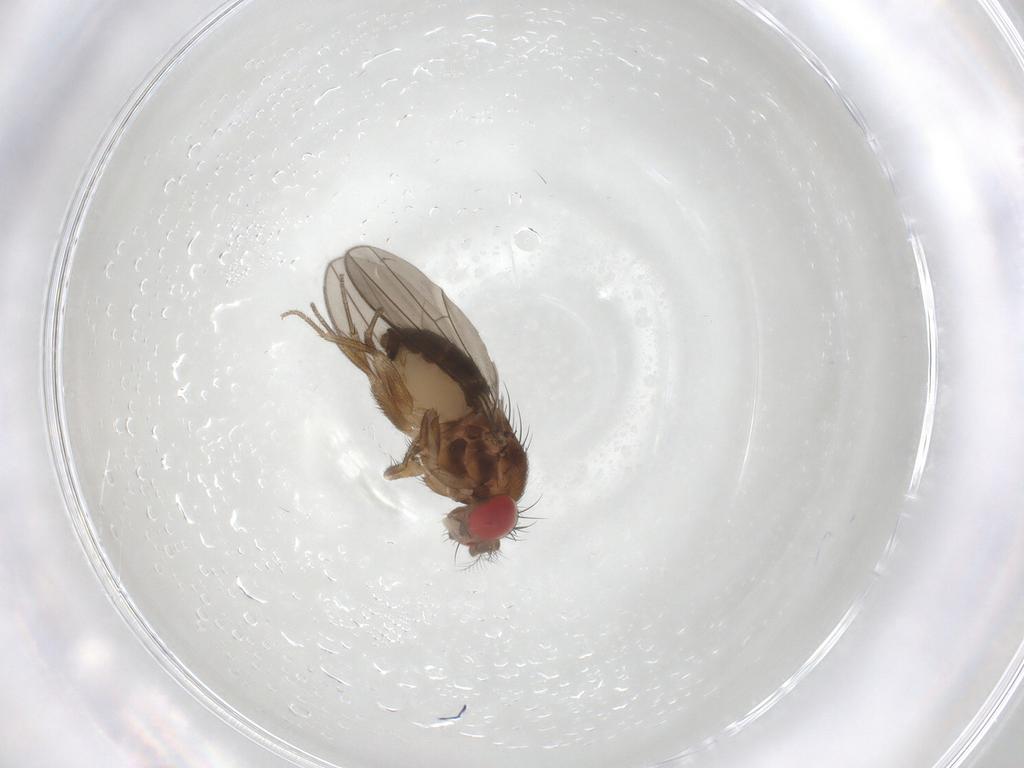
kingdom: Animalia
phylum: Arthropoda
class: Insecta
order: Diptera
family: Drosophilidae
